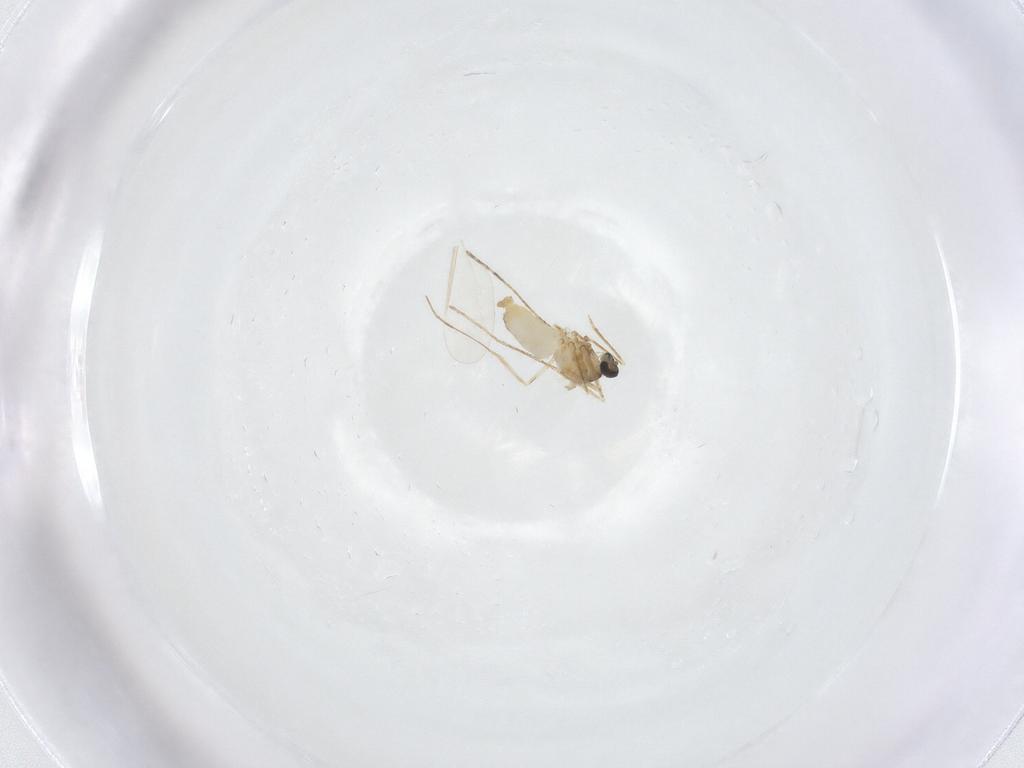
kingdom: Animalia
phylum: Arthropoda
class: Insecta
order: Diptera
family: Cecidomyiidae
